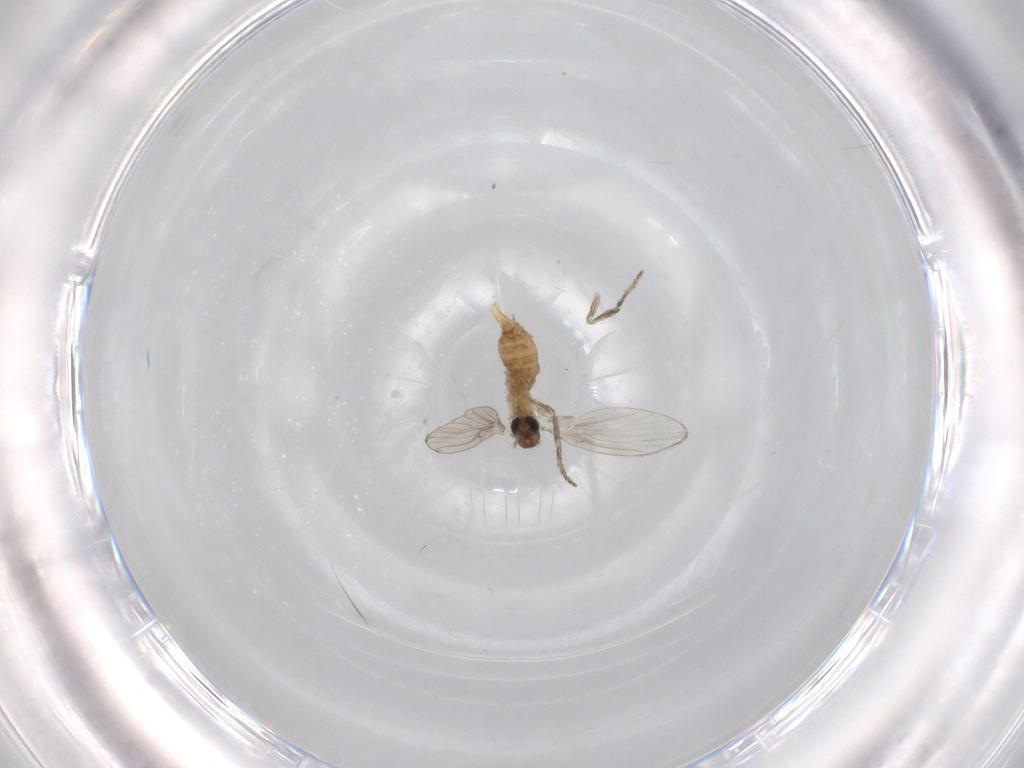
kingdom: Animalia
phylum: Arthropoda
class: Insecta
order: Diptera
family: Psychodidae
